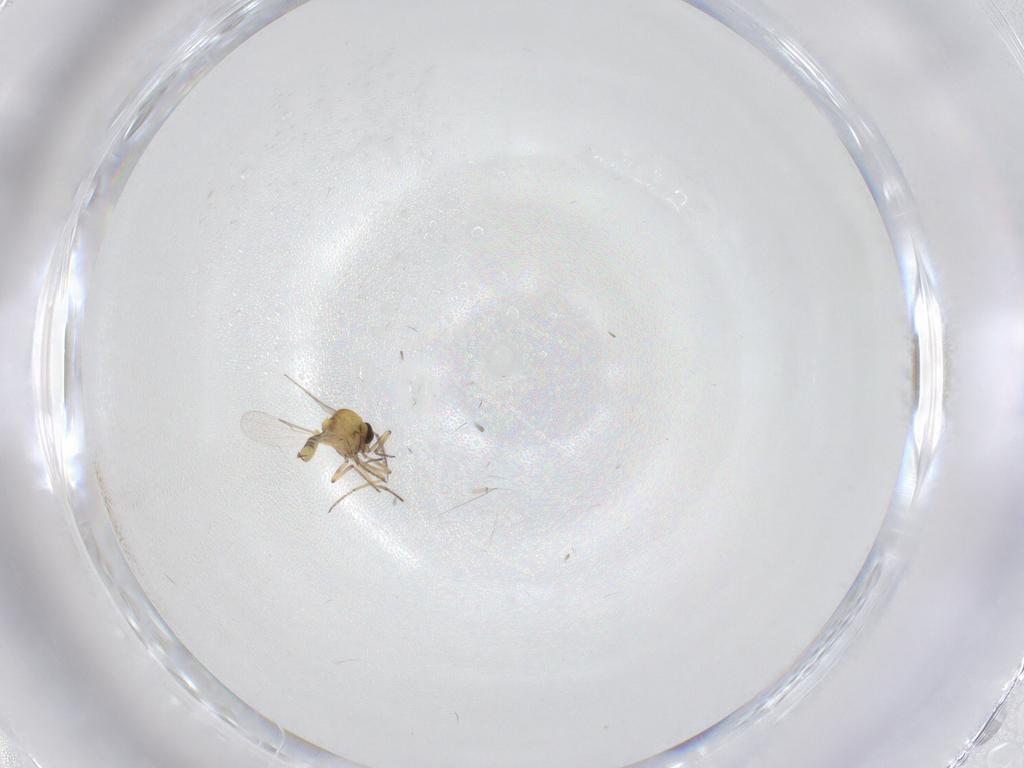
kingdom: Animalia
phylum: Arthropoda
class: Insecta
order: Diptera
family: Ceratopogonidae
